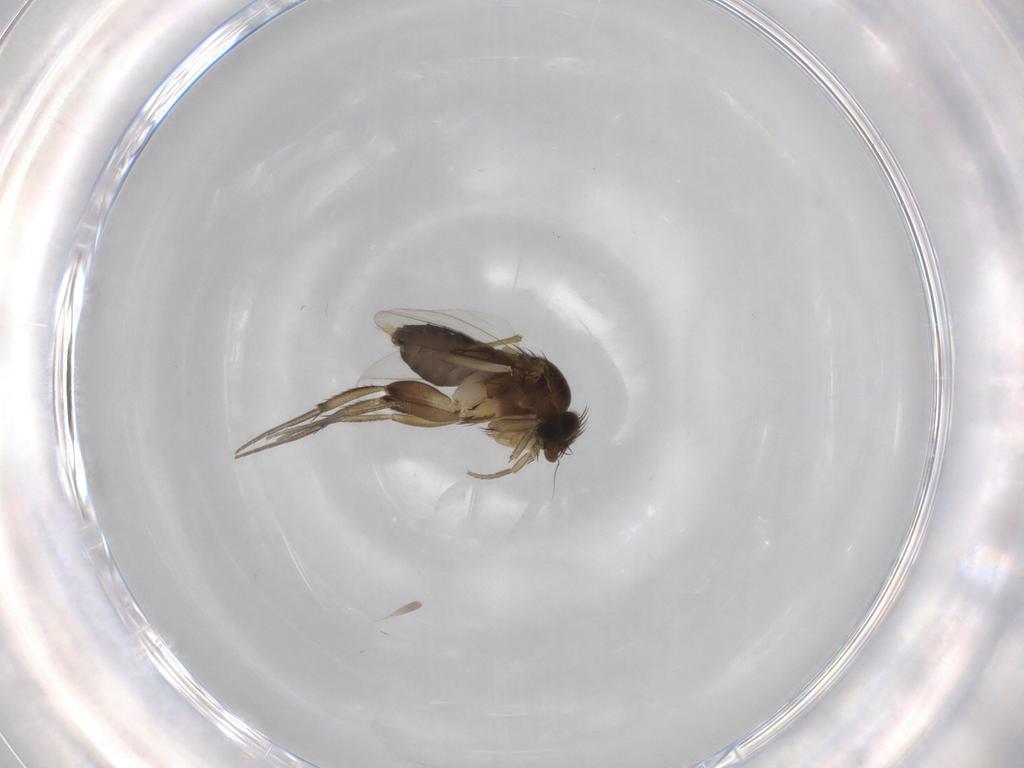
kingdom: Animalia
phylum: Arthropoda
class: Insecta
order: Diptera
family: Phoridae
